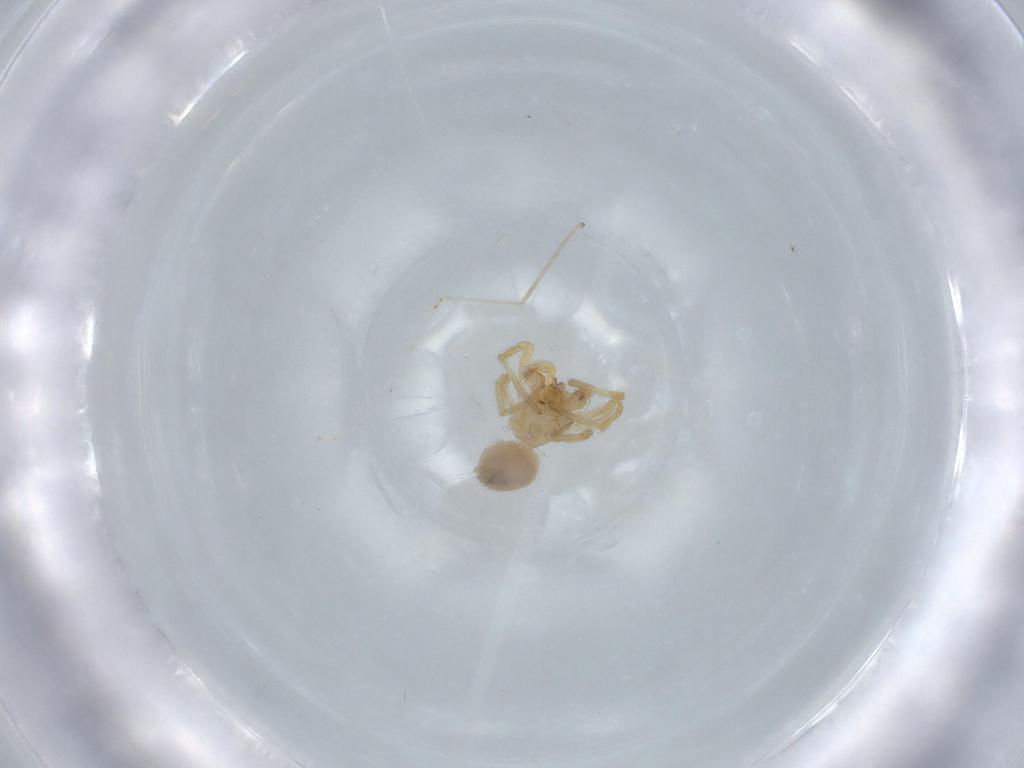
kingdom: Animalia
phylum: Arthropoda
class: Arachnida
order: Araneae
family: Oonopidae
